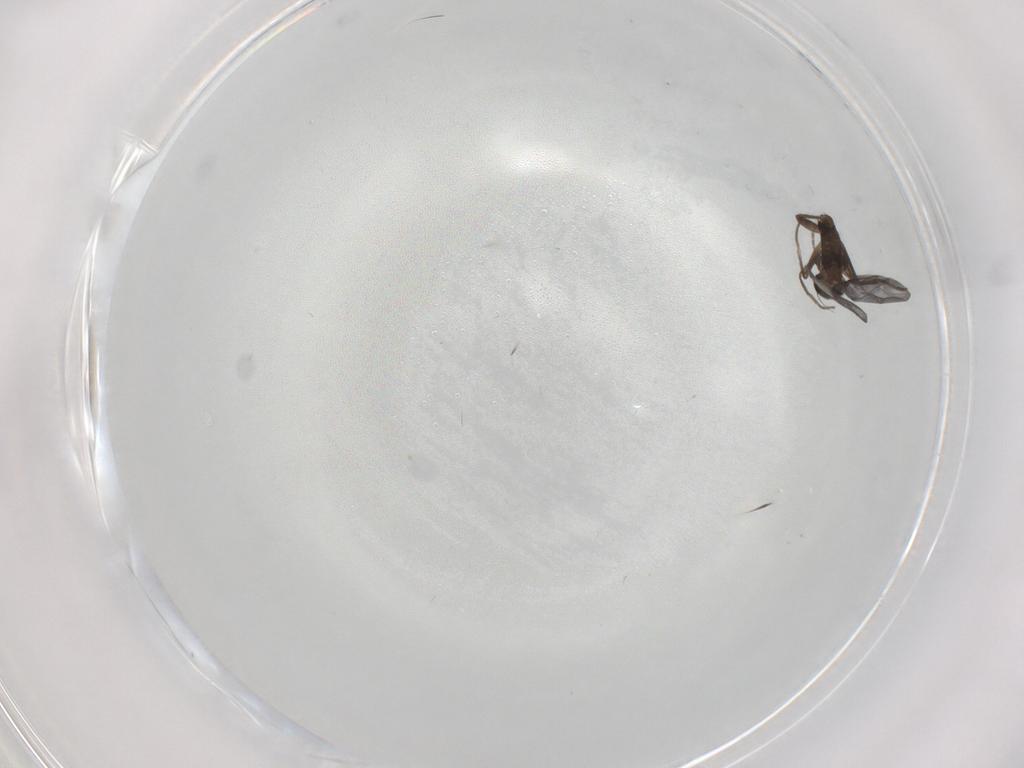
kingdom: Animalia
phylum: Arthropoda
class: Insecta
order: Diptera
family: Phoridae
